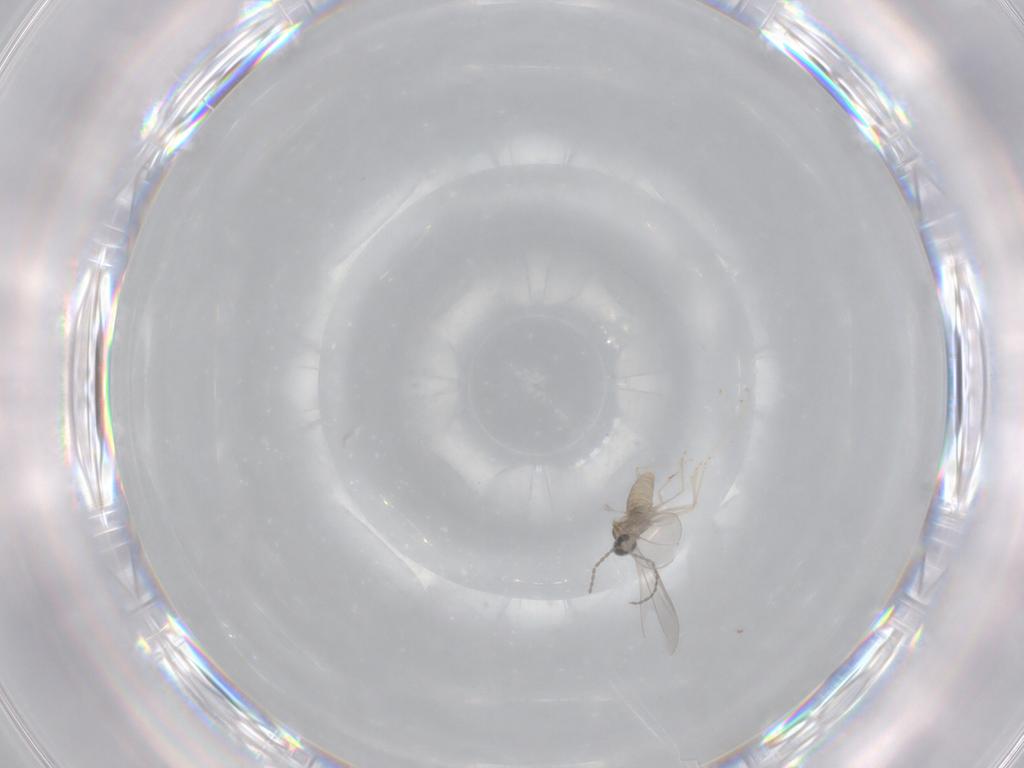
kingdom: Animalia
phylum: Arthropoda
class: Insecta
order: Diptera
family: Cecidomyiidae
